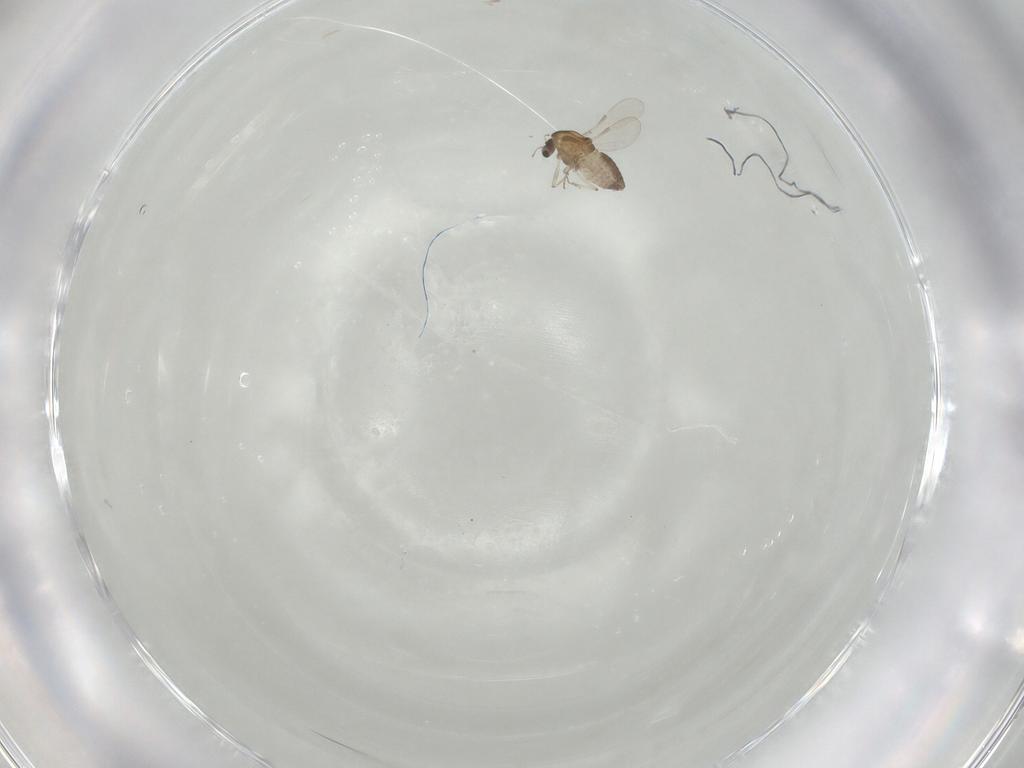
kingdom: Animalia
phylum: Arthropoda
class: Insecta
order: Diptera
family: Chironomidae
